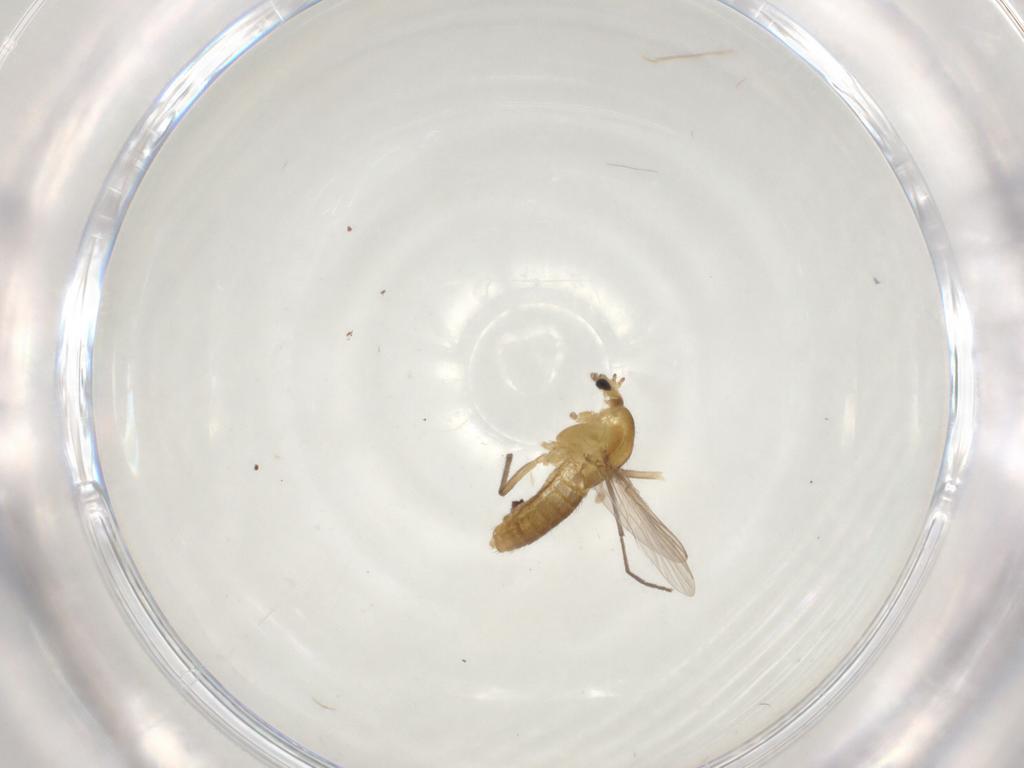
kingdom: Animalia
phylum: Arthropoda
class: Insecta
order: Diptera
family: Chironomidae
